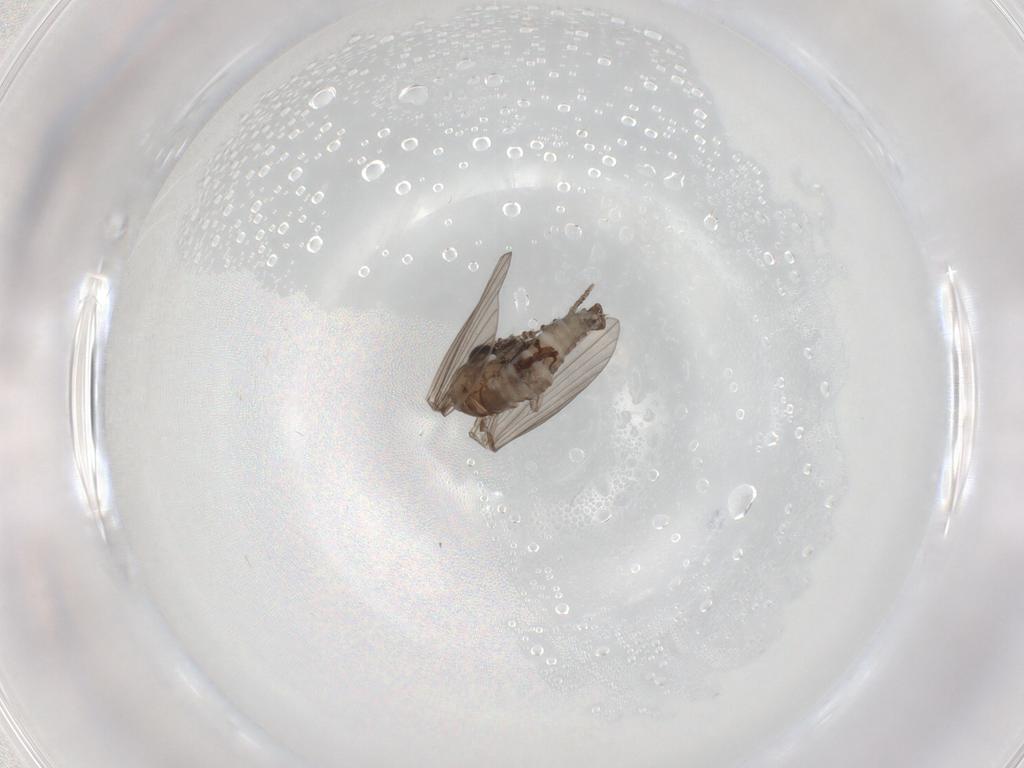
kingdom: Animalia
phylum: Arthropoda
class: Insecta
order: Diptera
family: Psychodidae
